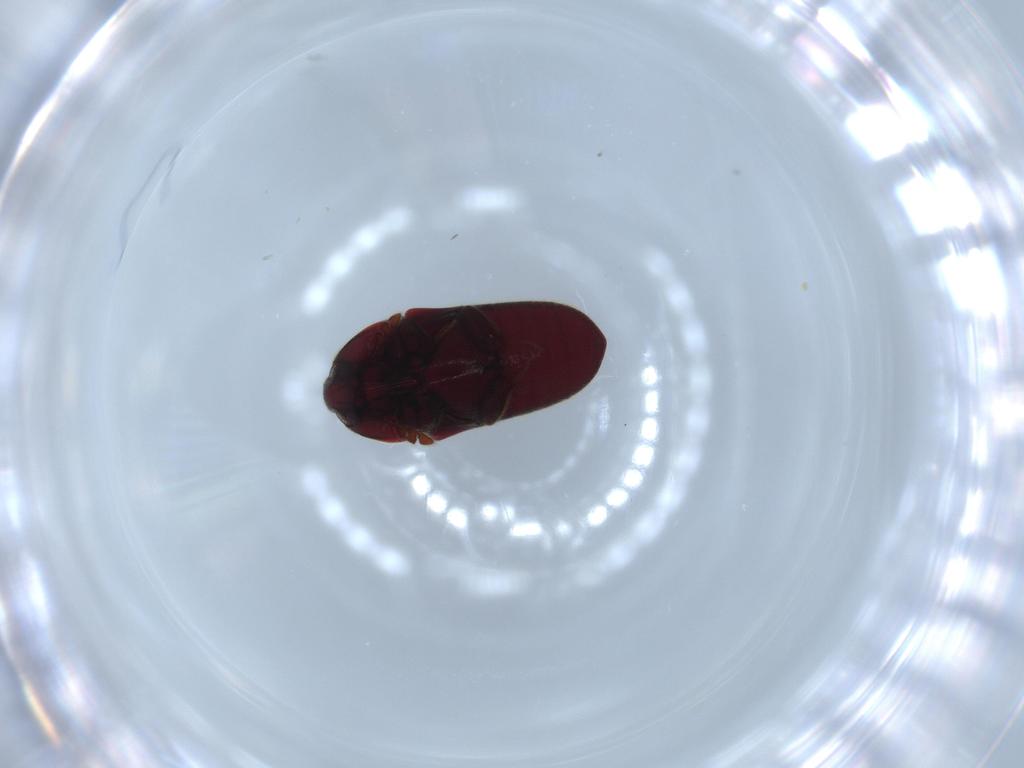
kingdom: Animalia
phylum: Arthropoda
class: Insecta
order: Coleoptera
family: Throscidae
